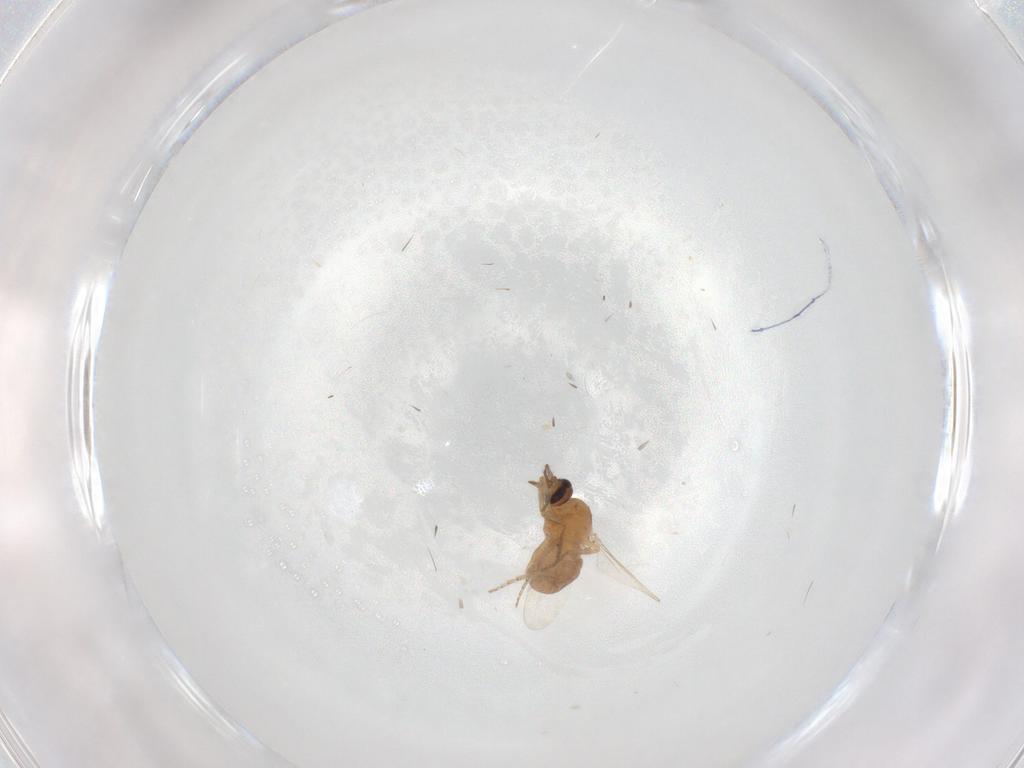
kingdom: Animalia
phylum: Arthropoda
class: Insecta
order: Diptera
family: Ceratopogonidae
